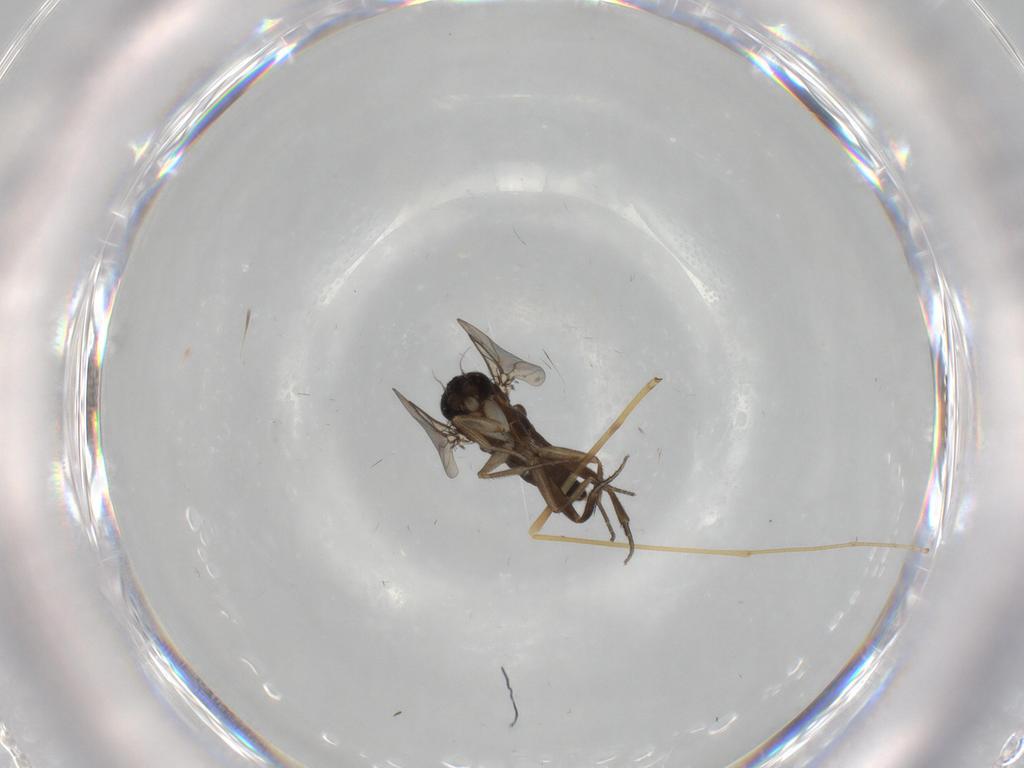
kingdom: Animalia
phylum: Arthropoda
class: Insecta
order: Diptera
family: Phoridae
